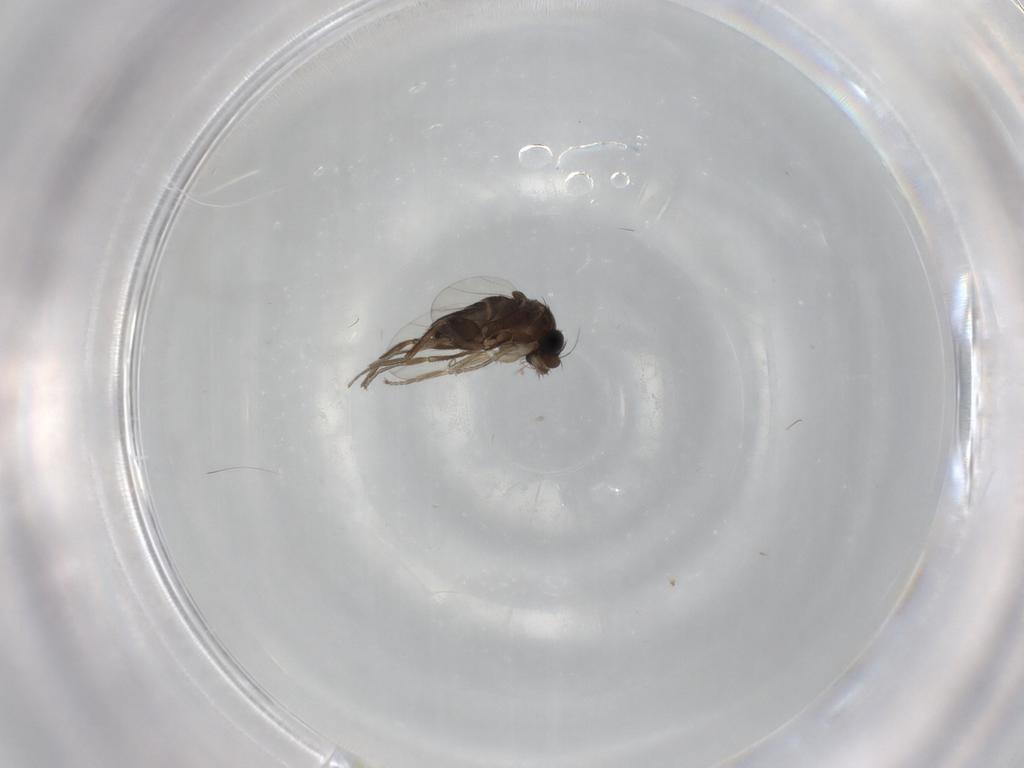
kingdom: Animalia
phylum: Arthropoda
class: Insecta
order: Diptera
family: Phoridae
